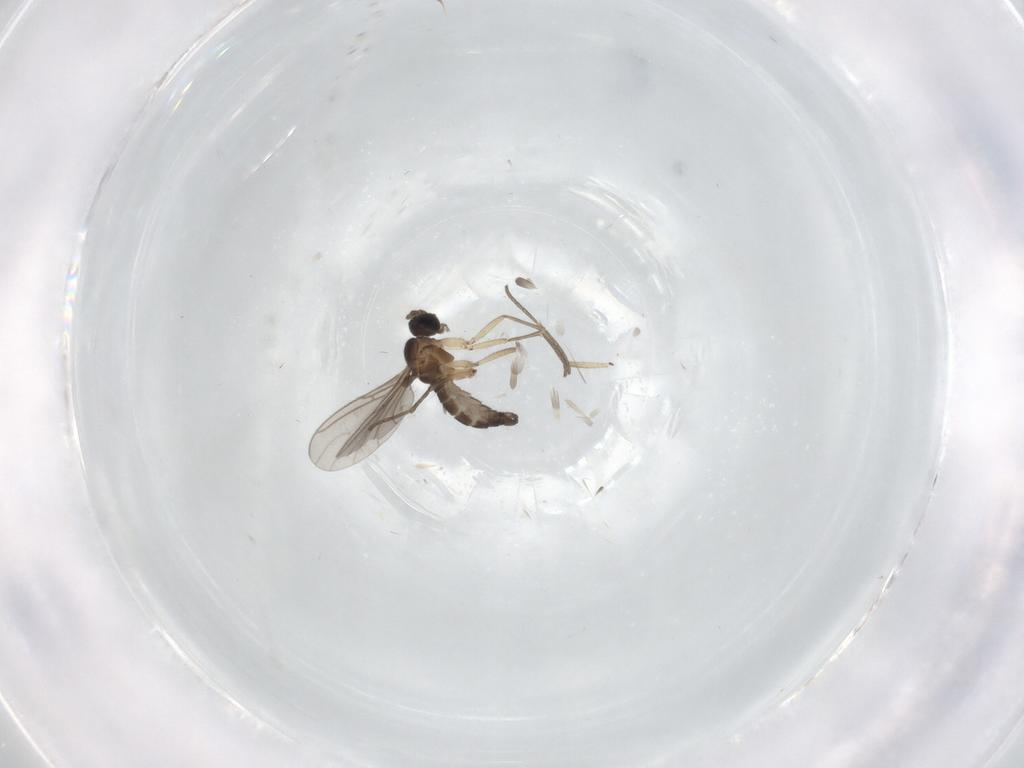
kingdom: Animalia
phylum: Arthropoda
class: Insecta
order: Diptera
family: Sciaridae
